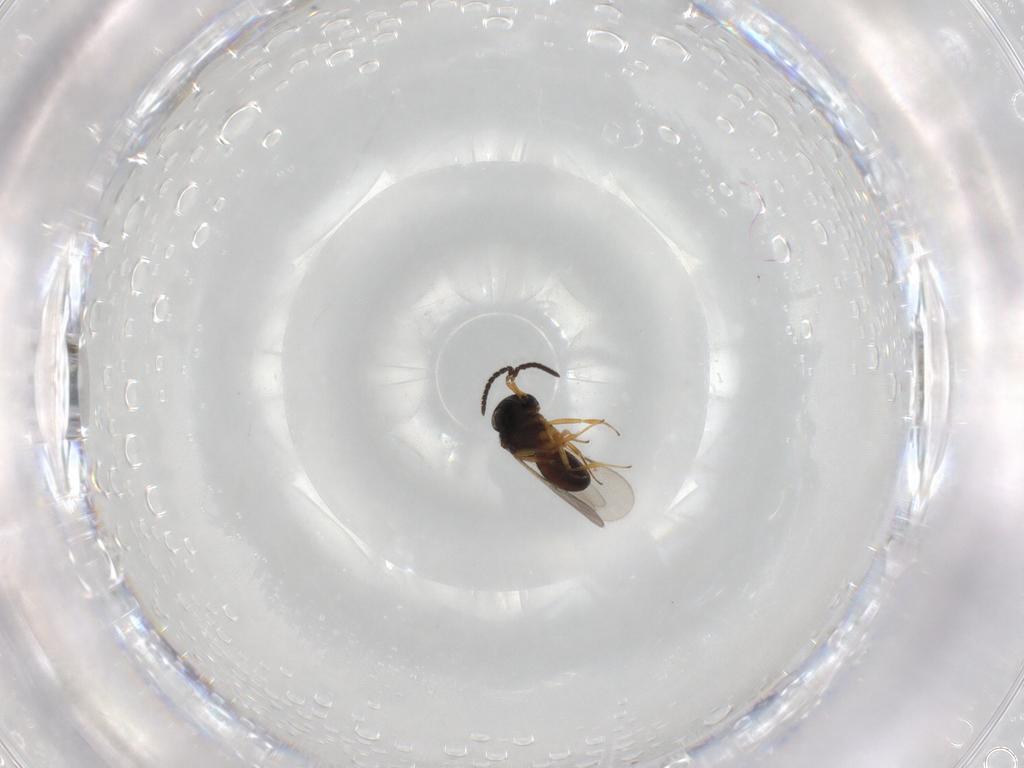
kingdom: Animalia
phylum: Arthropoda
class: Insecta
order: Hymenoptera
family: Scelionidae
